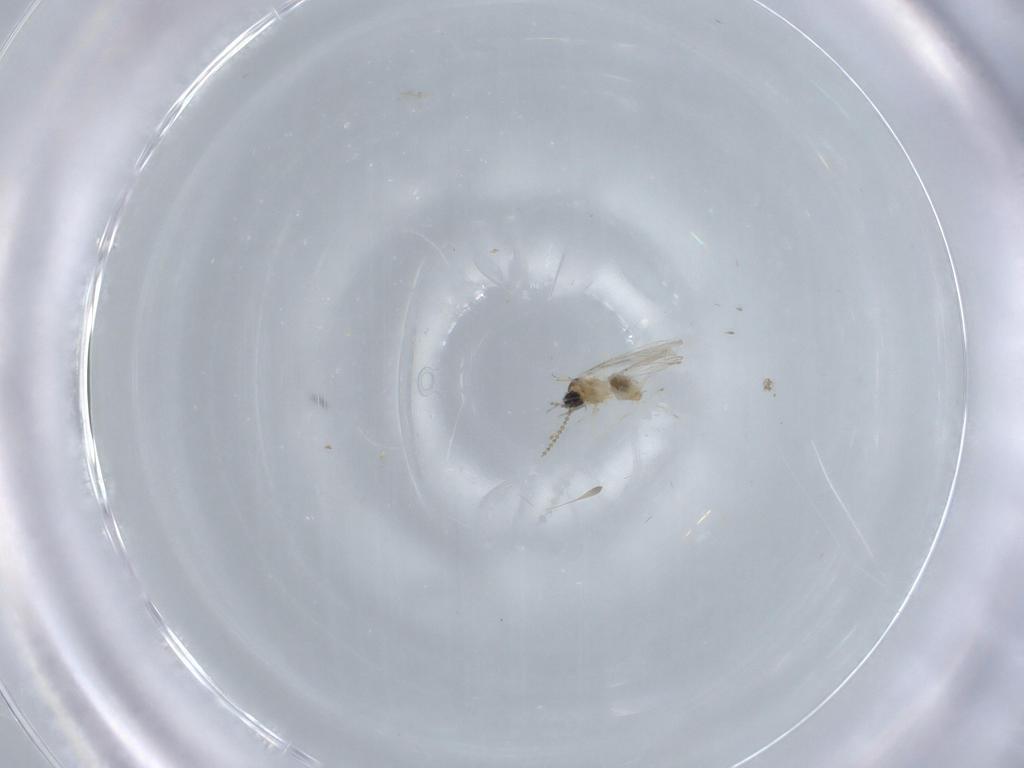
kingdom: Animalia
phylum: Arthropoda
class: Insecta
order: Diptera
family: Cecidomyiidae
